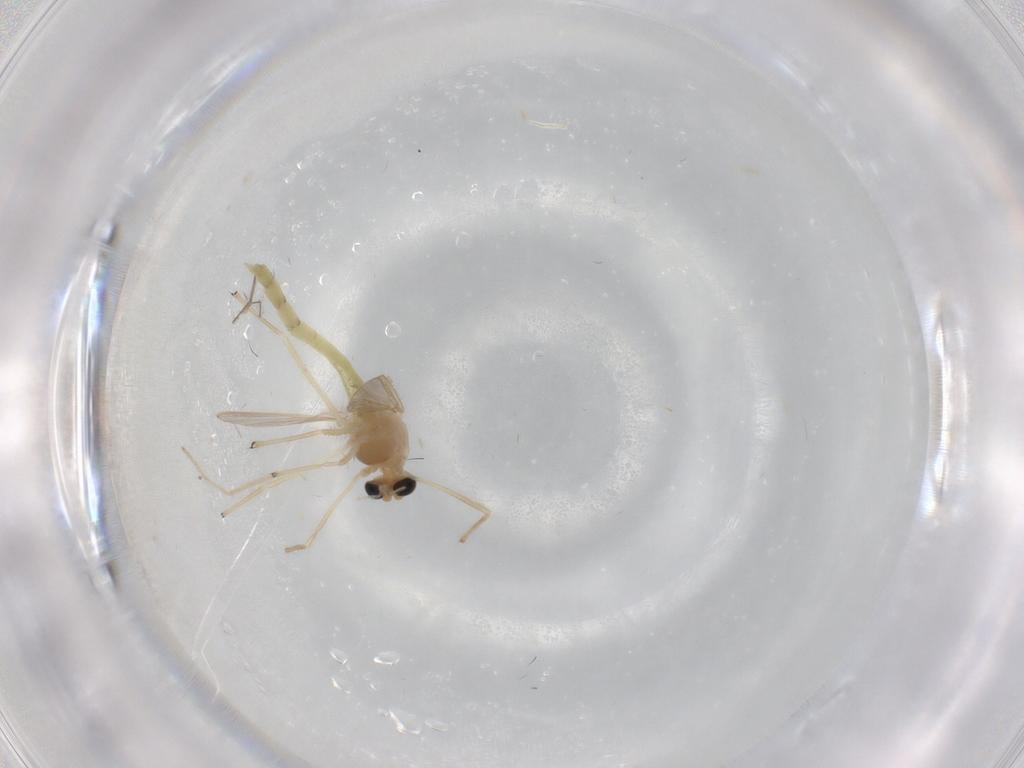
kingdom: Animalia
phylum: Arthropoda
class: Insecta
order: Diptera
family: Chironomidae
